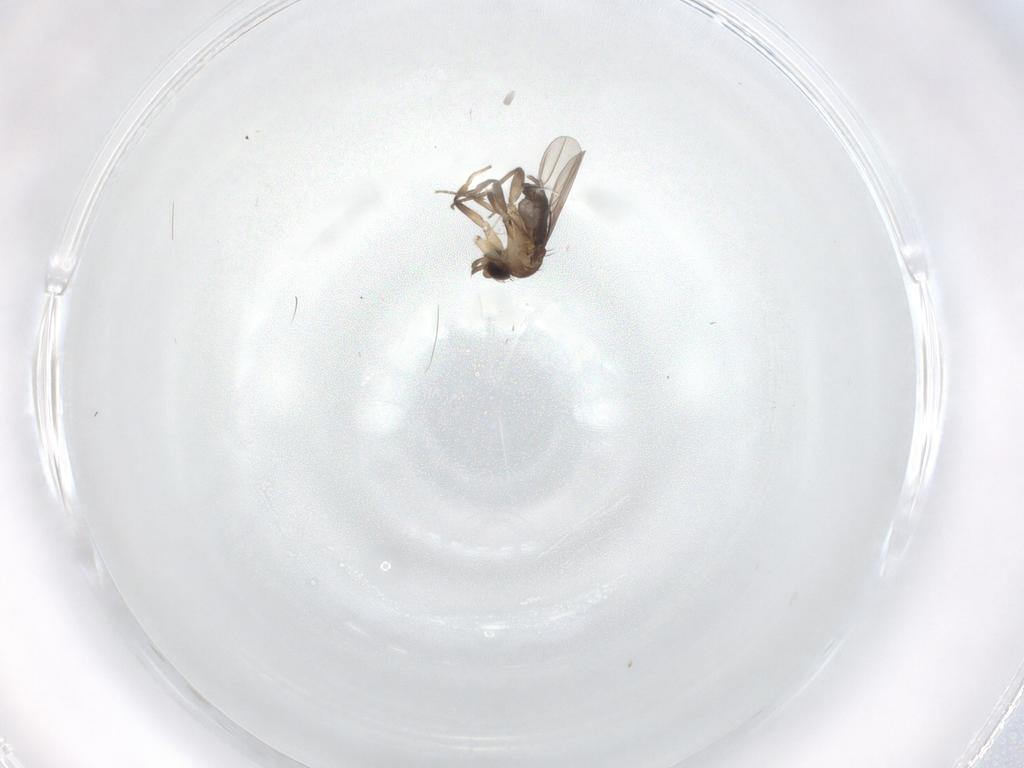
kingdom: Animalia
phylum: Arthropoda
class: Insecta
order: Diptera
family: Phoridae
